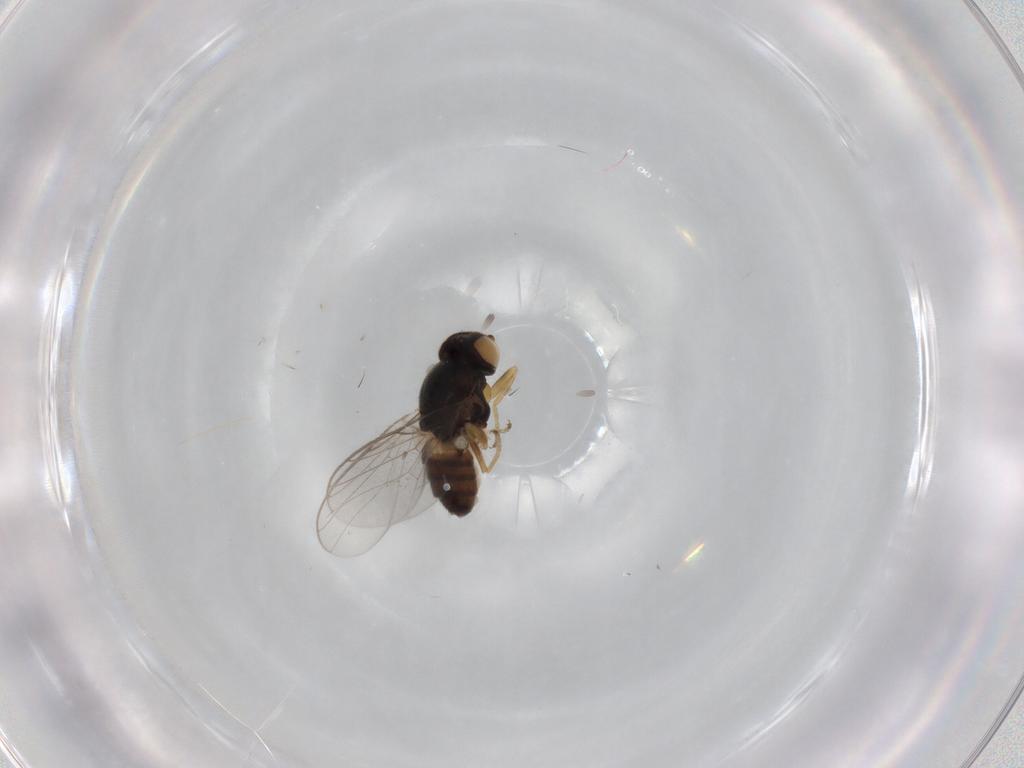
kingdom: Animalia
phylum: Arthropoda
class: Insecta
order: Diptera
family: Chloropidae
